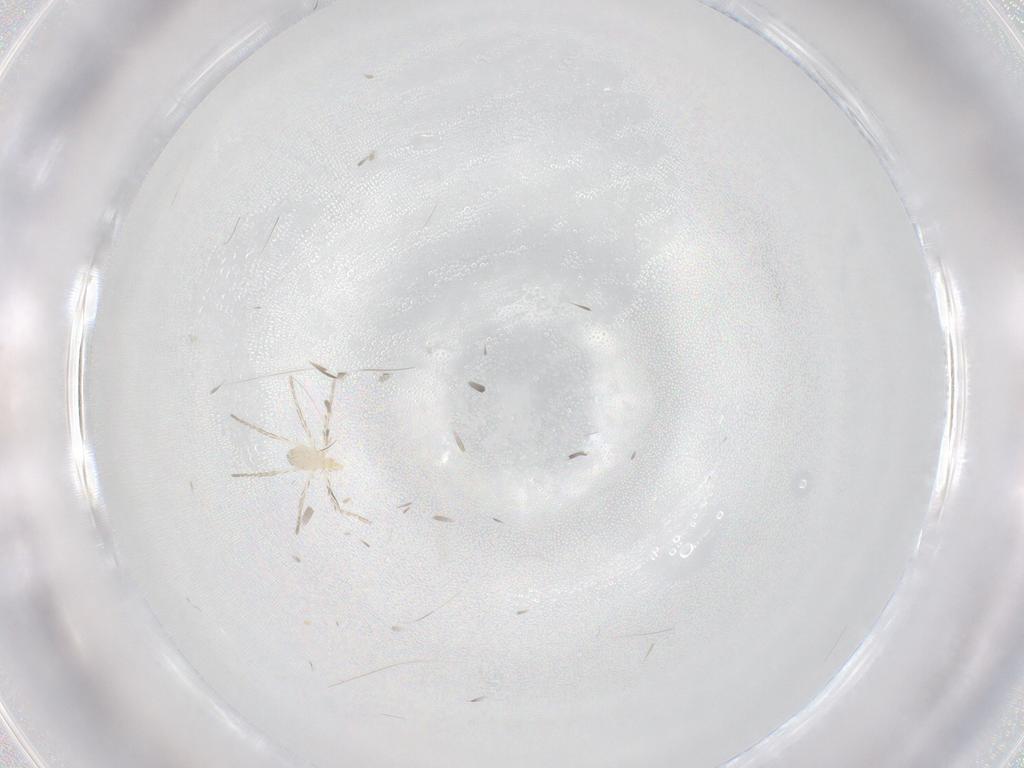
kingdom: Animalia
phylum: Arthropoda
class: Arachnida
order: Trombidiformes
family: Erythraeidae
